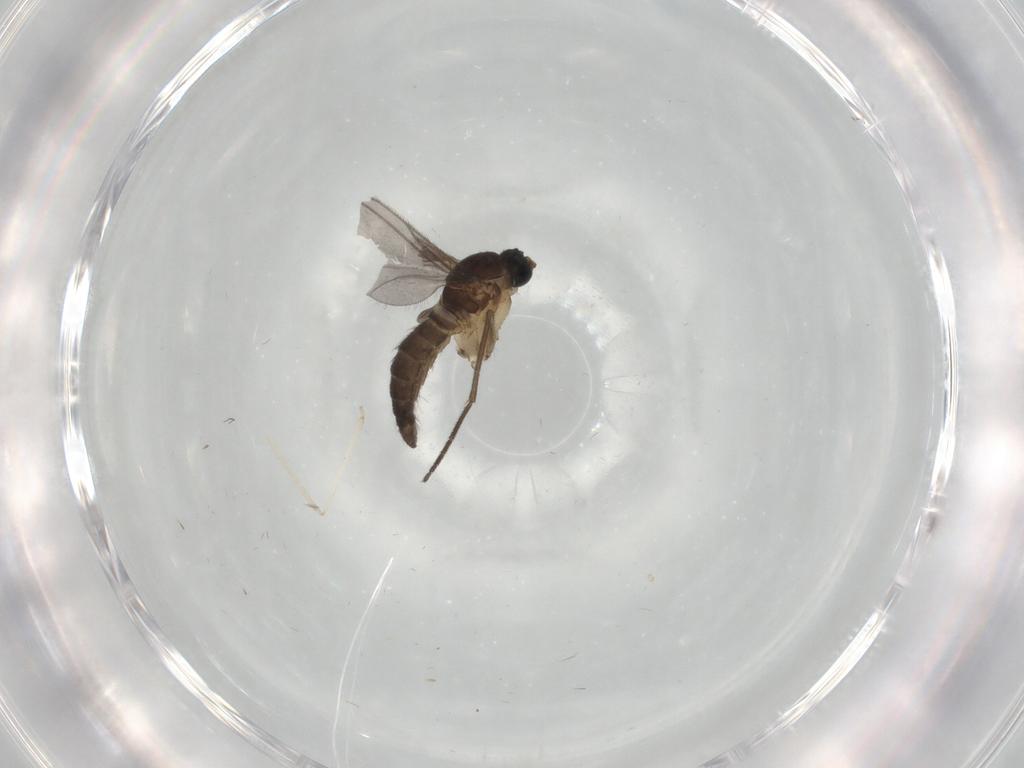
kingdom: Animalia
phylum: Arthropoda
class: Insecta
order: Diptera
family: Sciaridae
